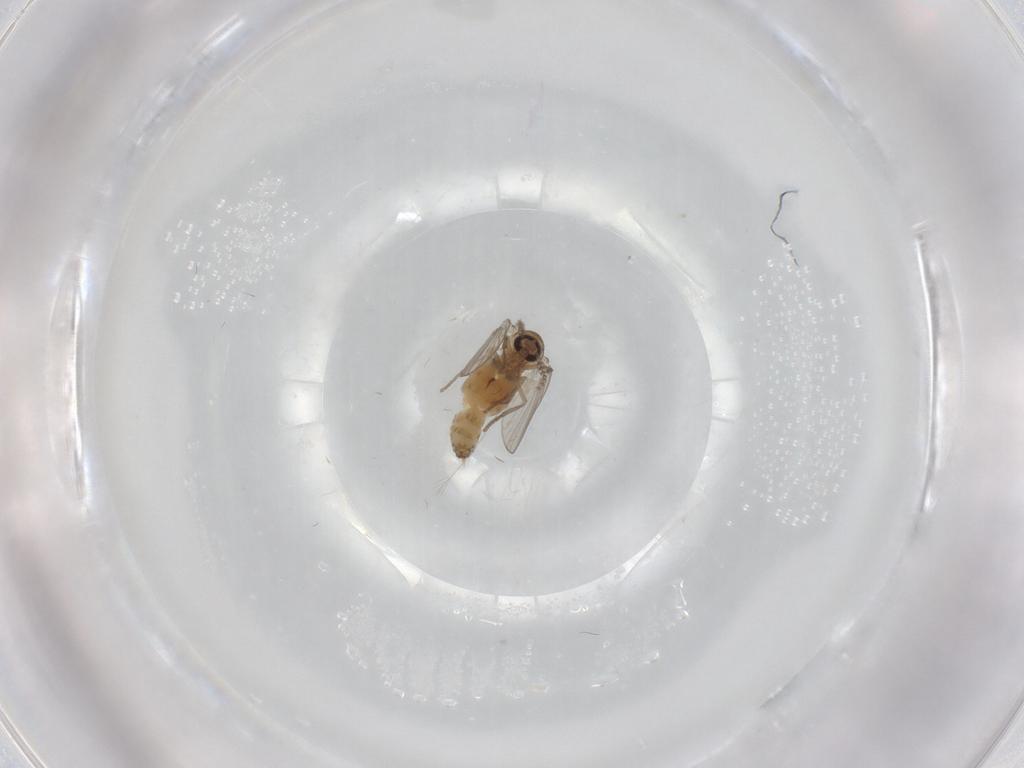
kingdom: Animalia
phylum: Arthropoda
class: Insecta
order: Diptera
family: Psychodidae
